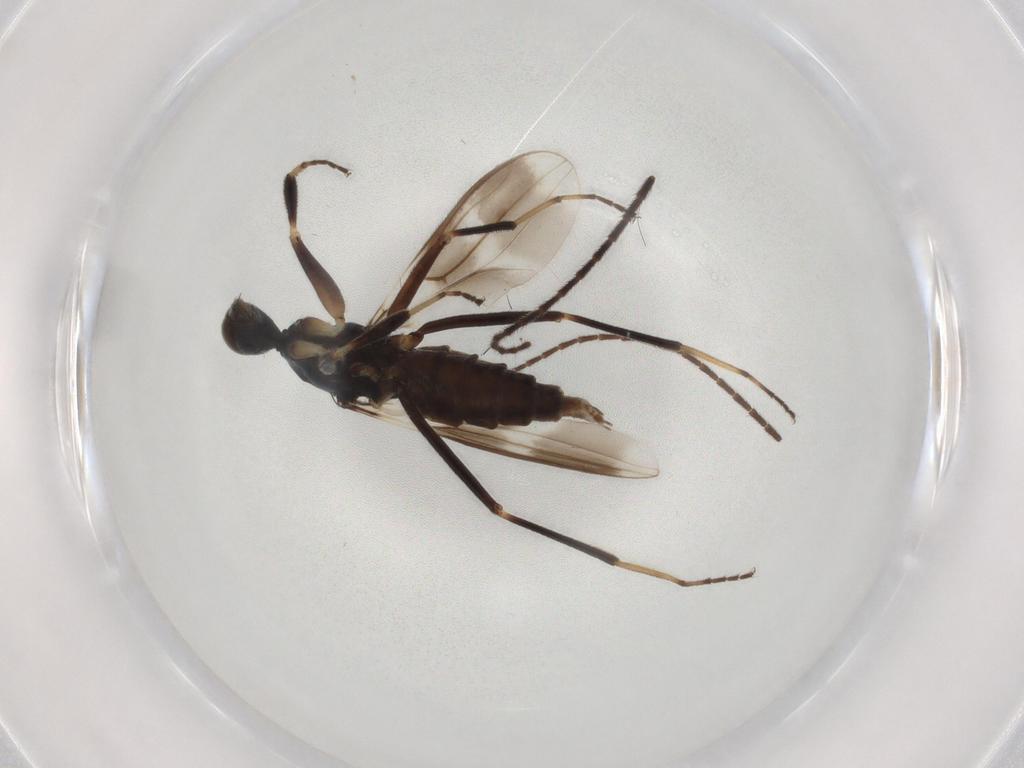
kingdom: Animalia
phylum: Arthropoda
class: Insecta
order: Diptera
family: Hybotidae
